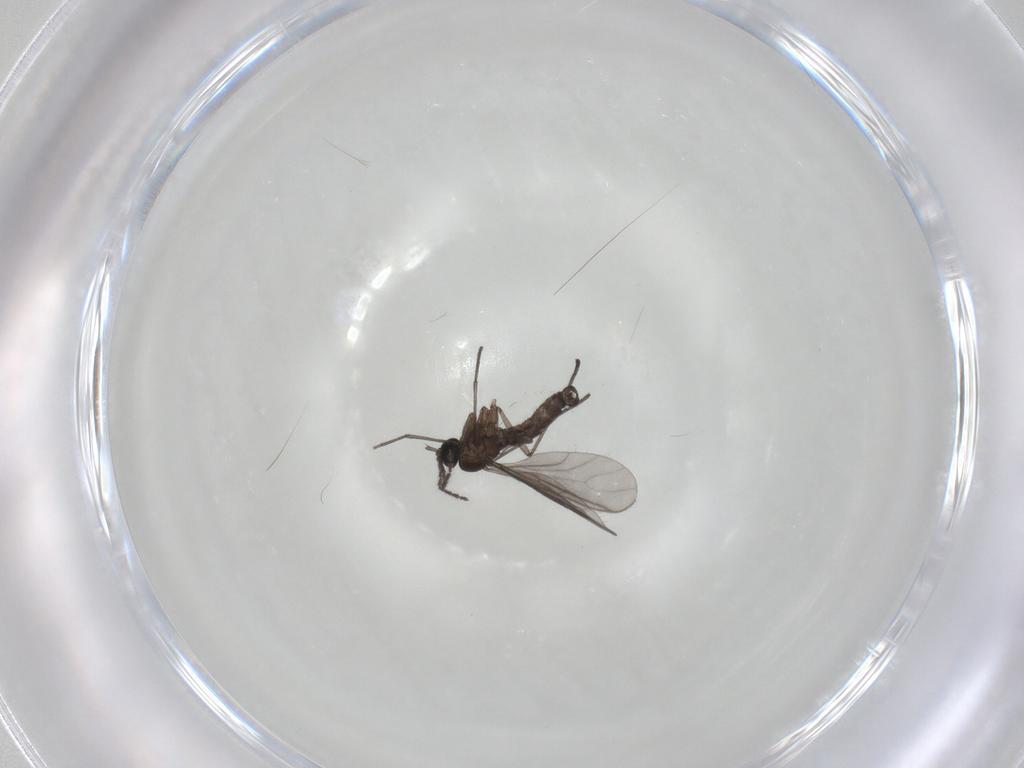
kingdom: Animalia
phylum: Arthropoda
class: Insecta
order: Diptera
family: Sciaridae
